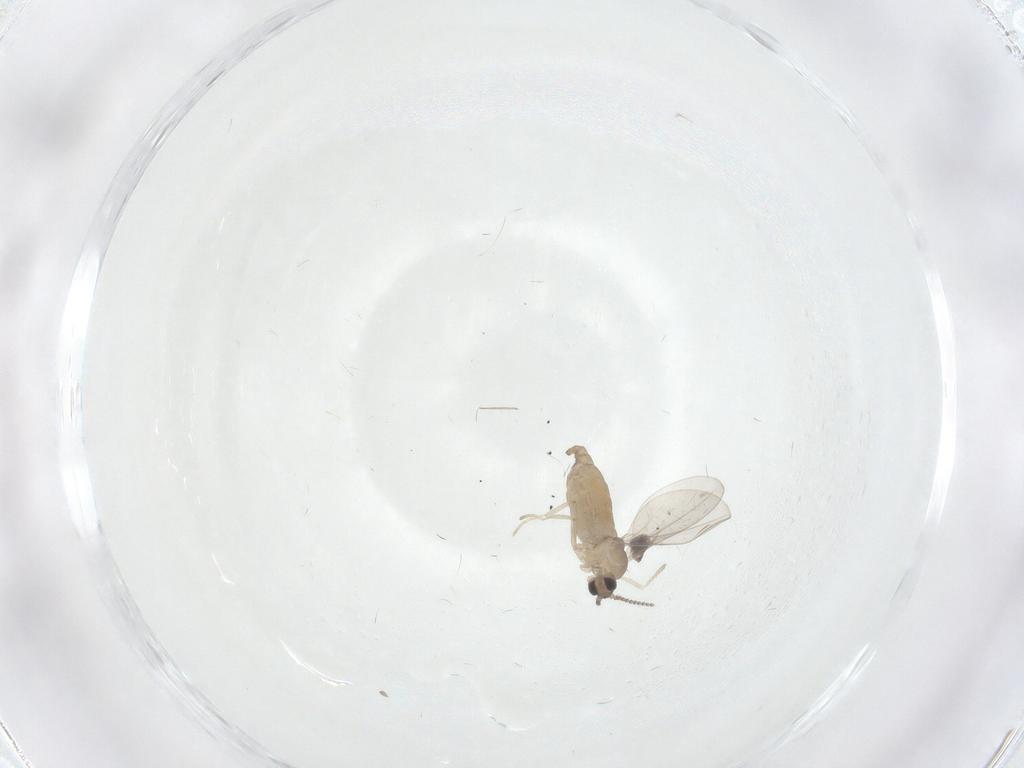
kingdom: Animalia
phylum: Arthropoda
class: Insecta
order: Diptera
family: Cecidomyiidae
